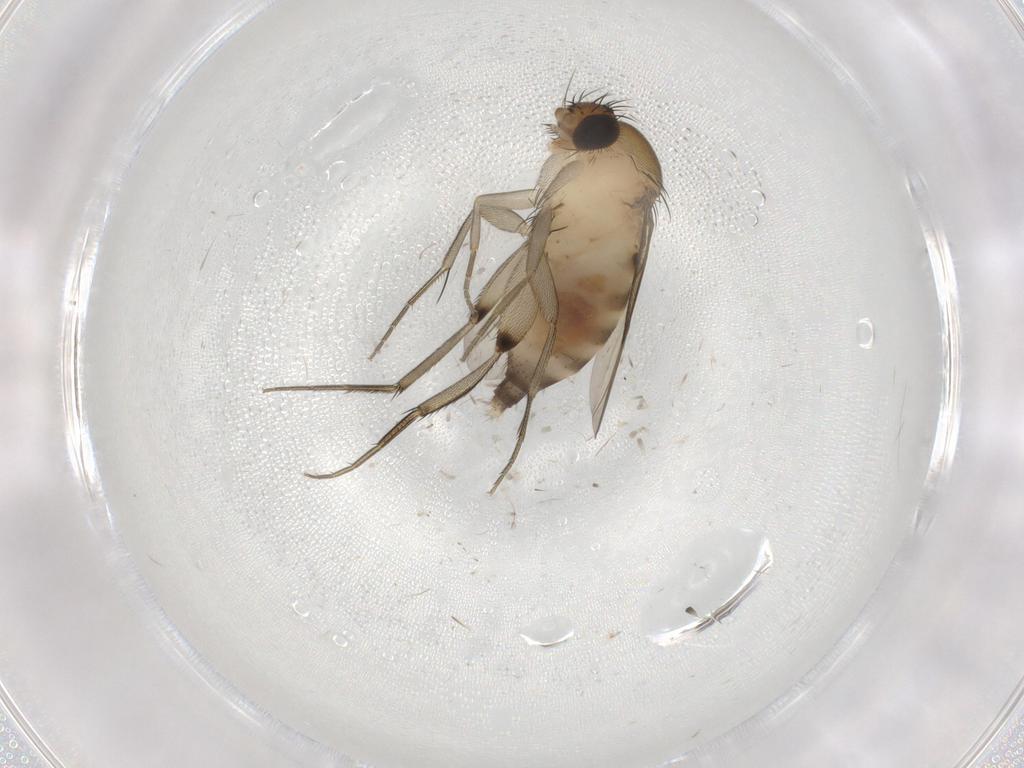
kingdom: Animalia
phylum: Arthropoda
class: Insecta
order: Diptera
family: Phoridae
